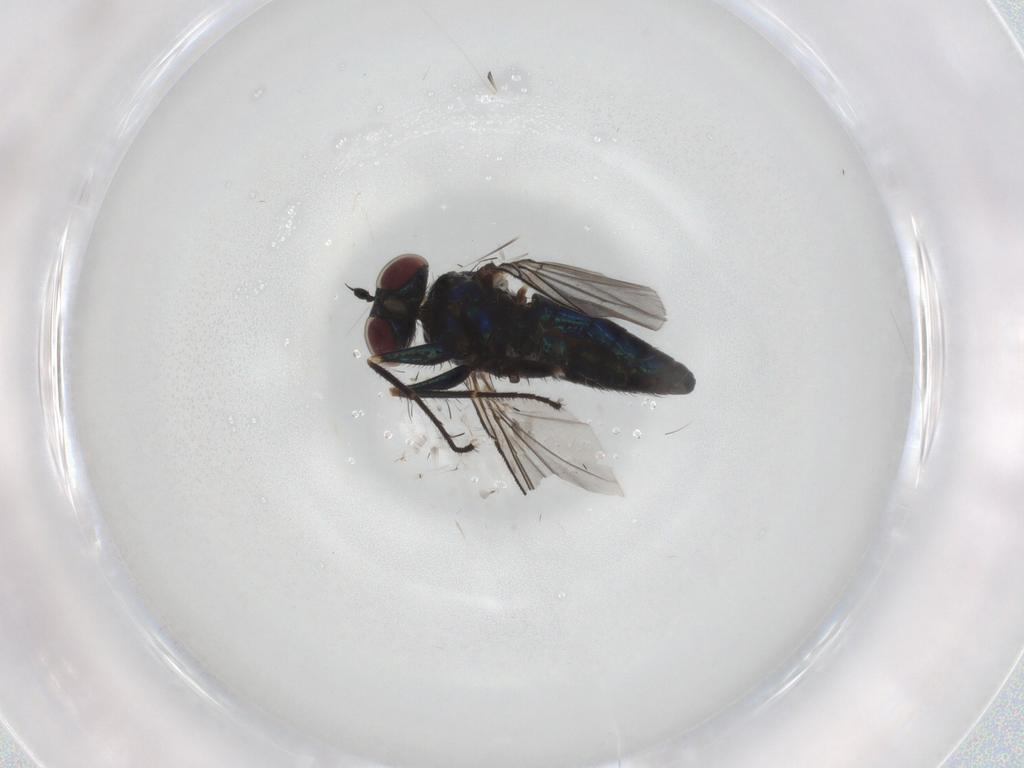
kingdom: Animalia
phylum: Arthropoda
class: Insecta
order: Diptera
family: Dolichopodidae
